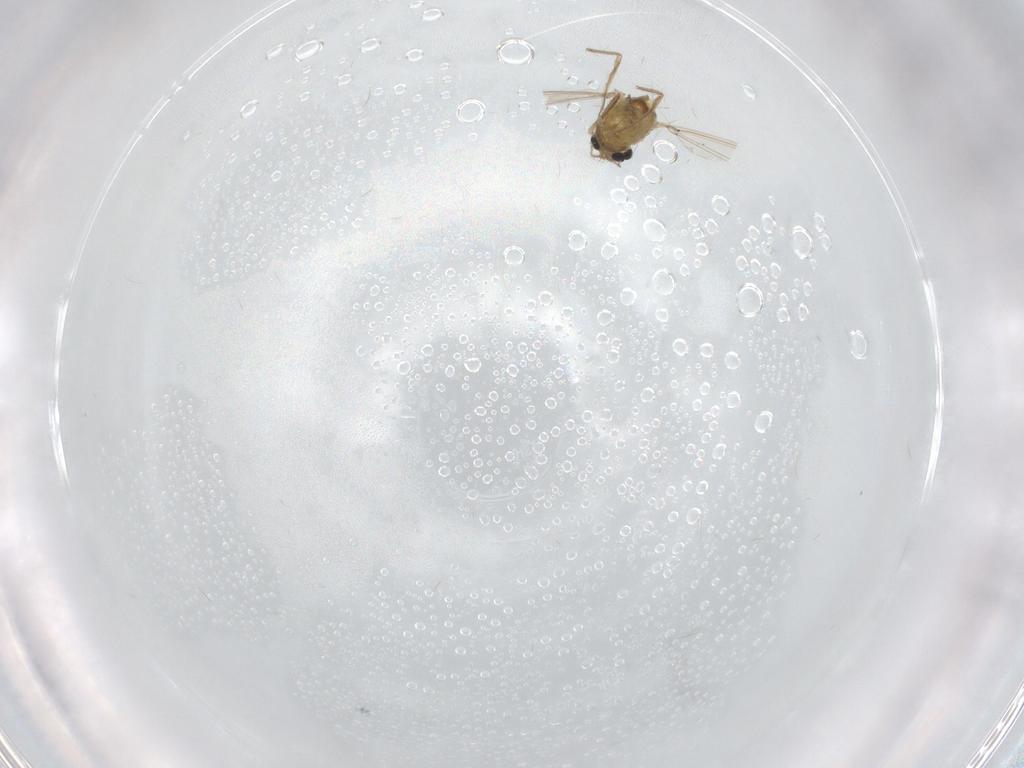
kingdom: Animalia
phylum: Arthropoda
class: Insecta
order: Diptera
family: Chironomidae
